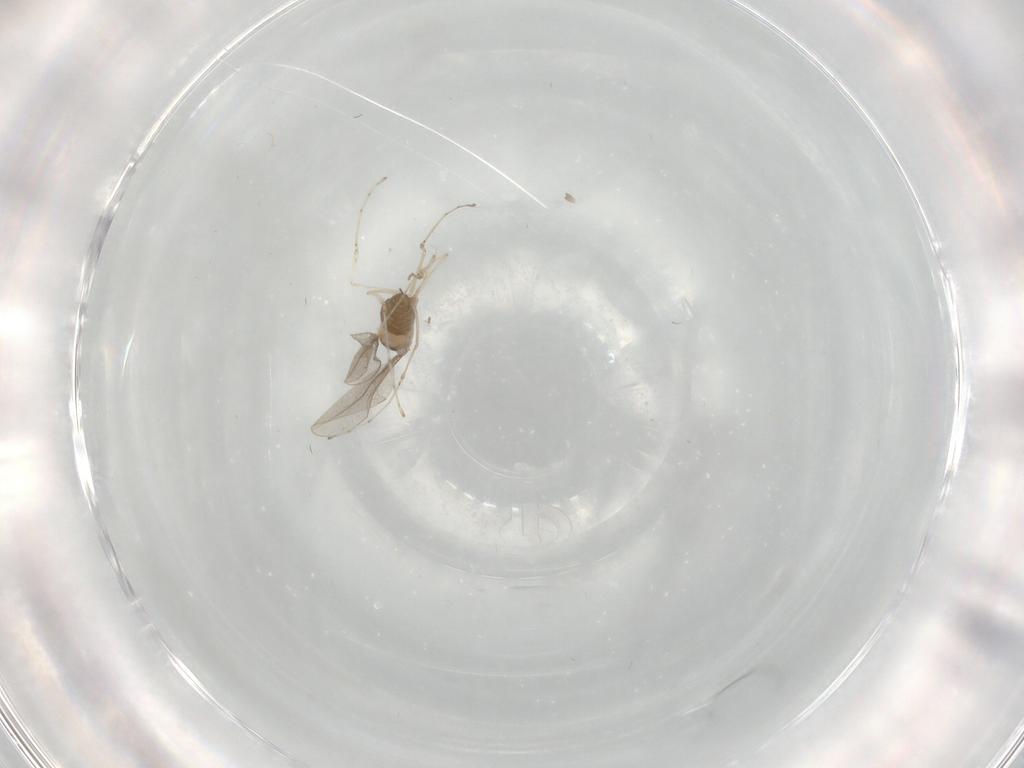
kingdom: Animalia
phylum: Arthropoda
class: Insecta
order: Diptera
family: Cecidomyiidae
